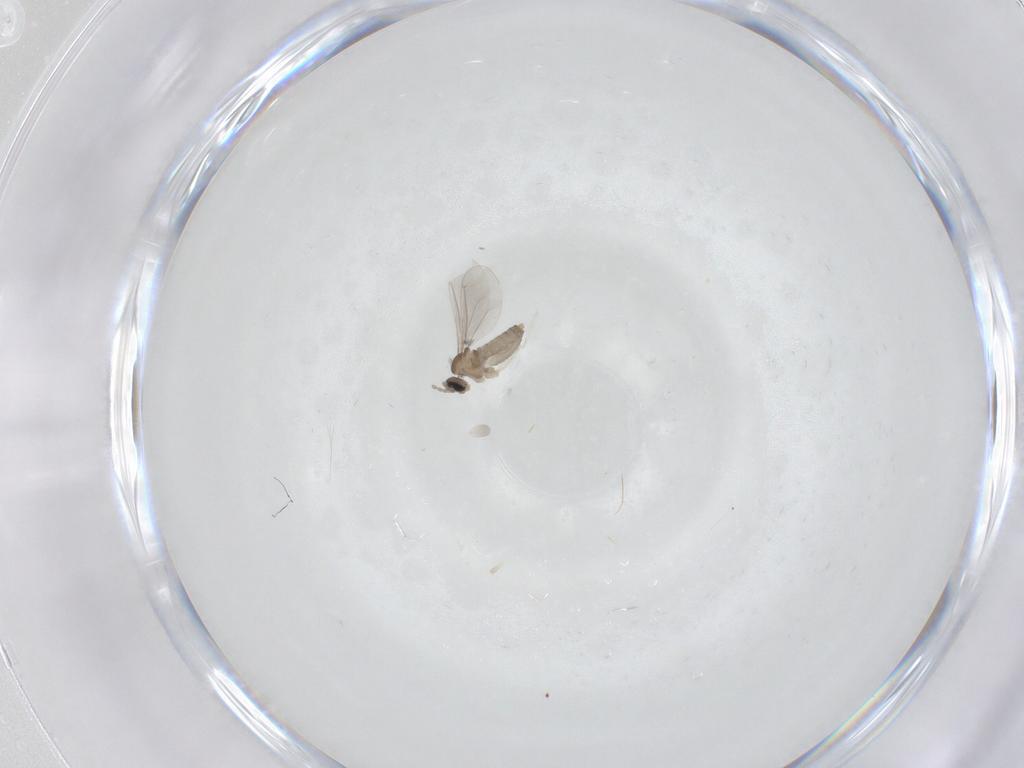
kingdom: Animalia
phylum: Arthropoda
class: Insecta
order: Diptera
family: Cecidomyiidae
